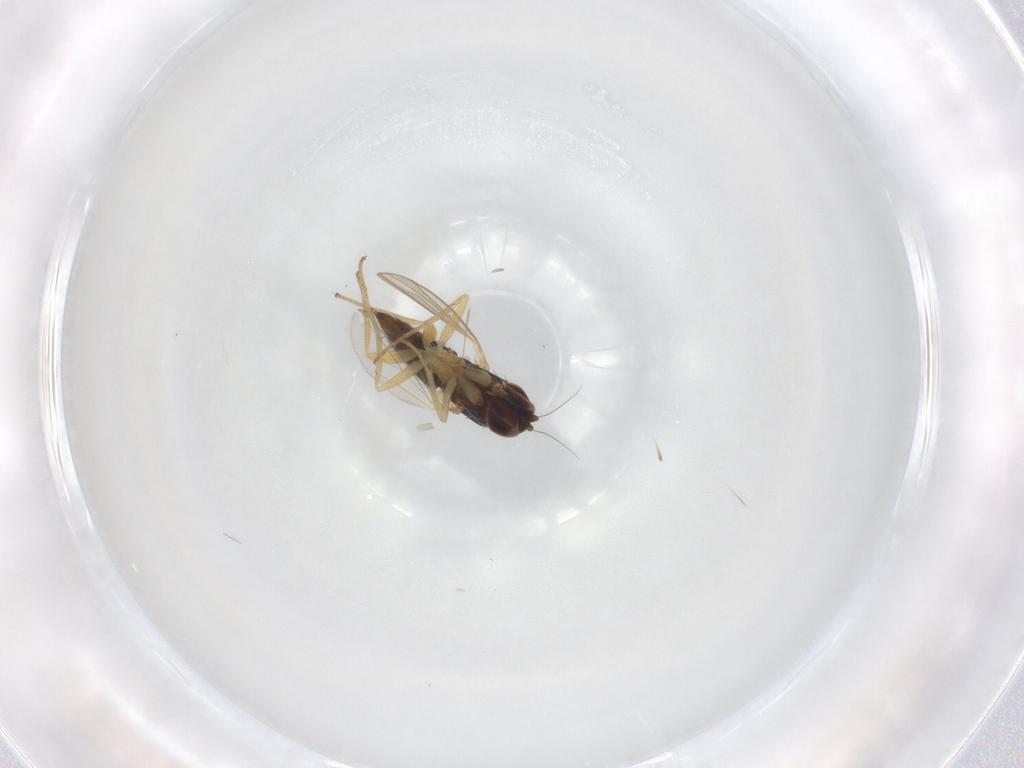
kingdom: Animalia
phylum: Arthropoda
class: Insecta
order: Diptera
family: Dolichopodidae
